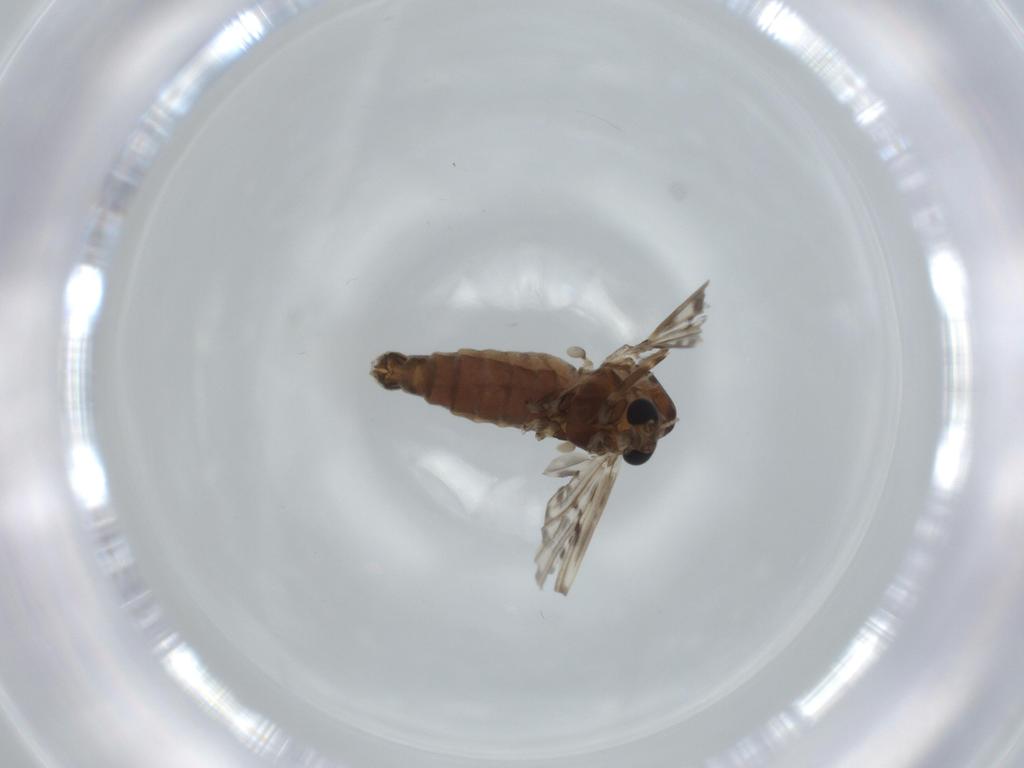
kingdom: Animalia
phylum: Arthropoda
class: Insecta
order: Diptera
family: Chironomidae
